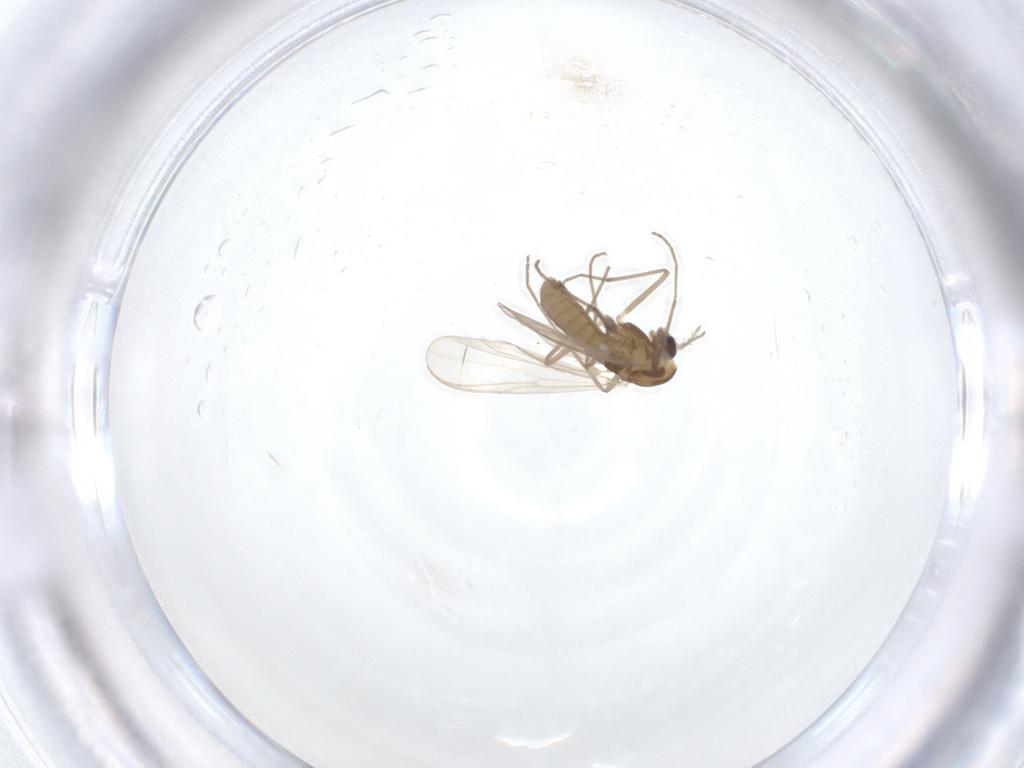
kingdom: Animalia
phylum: Arthropoda
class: Insecta
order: Diptera
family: Chironomidae
